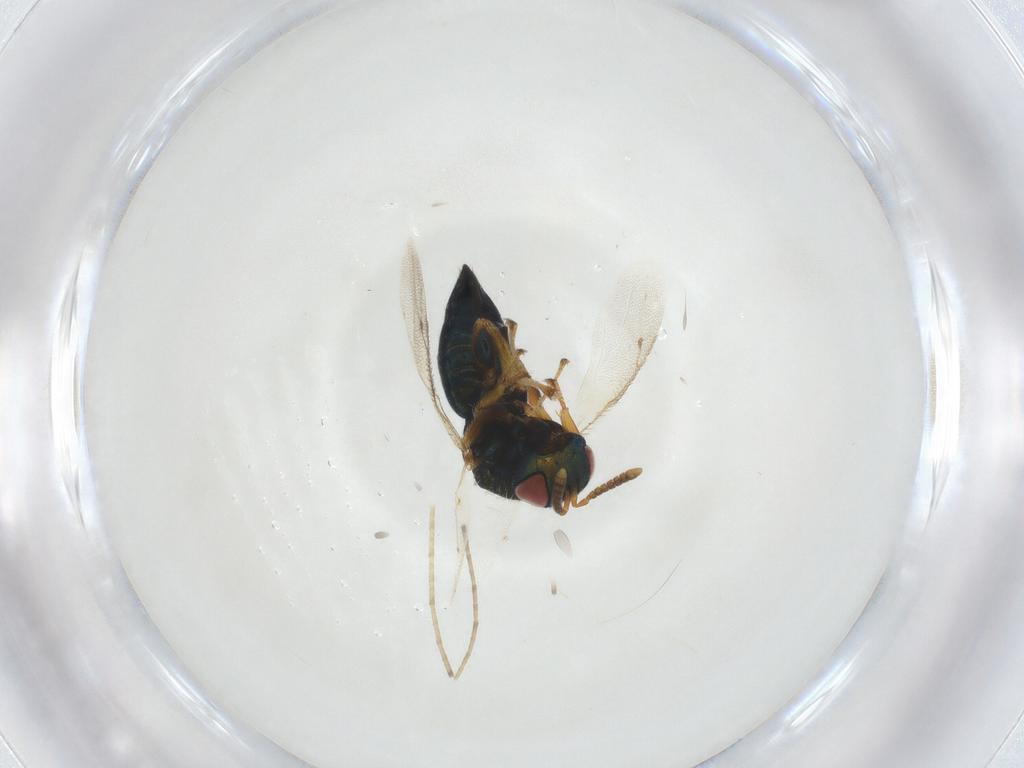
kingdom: Animalia
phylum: Arthropoda
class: Insecta
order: Hymenoptera
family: Pteromalidae
